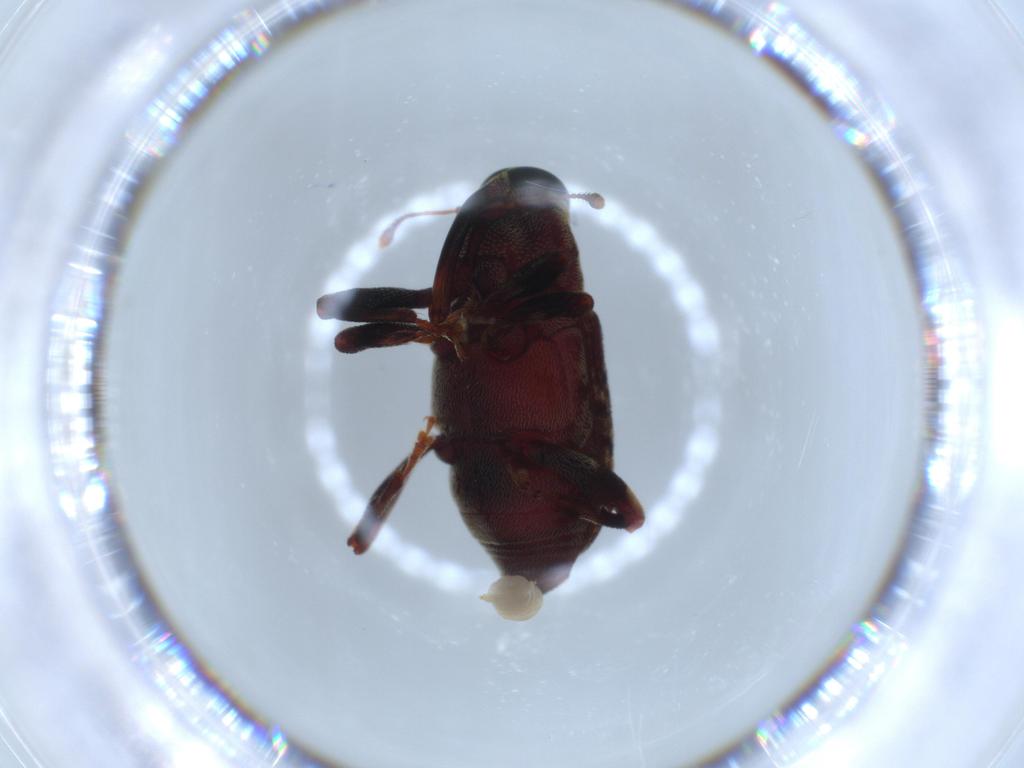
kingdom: Animalia
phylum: Arthropoda
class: Insecta
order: Coleoptera
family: Curculionidae
